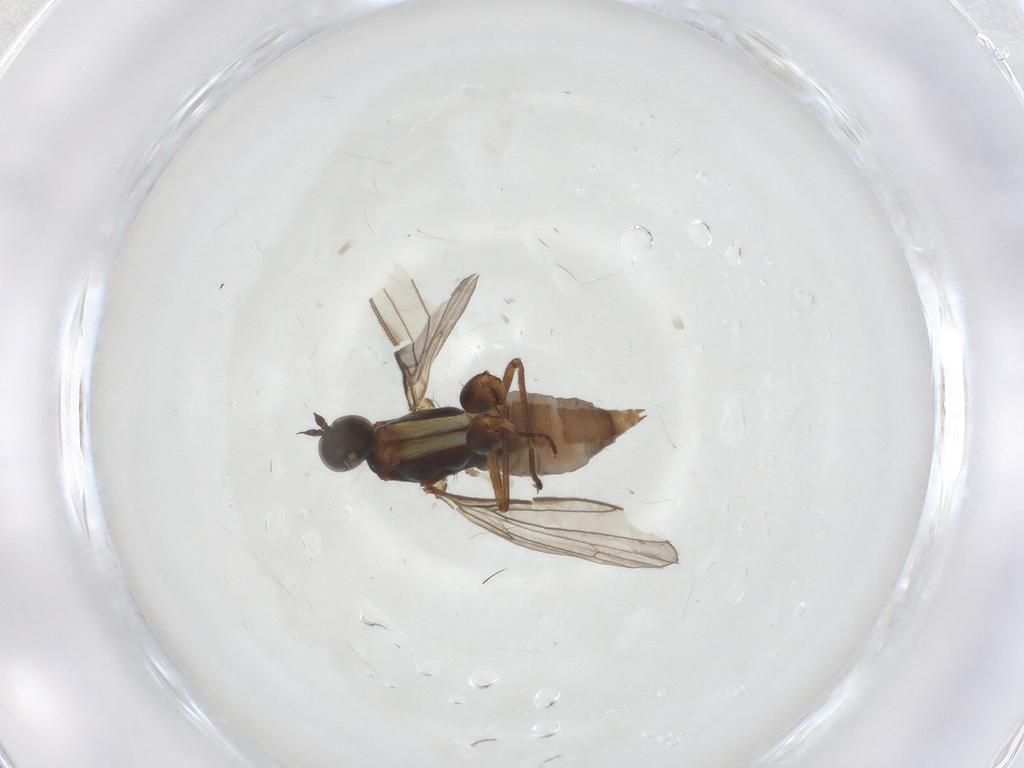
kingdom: Animalia
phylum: Arthropoda
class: Insecta
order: Diptera
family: Empididae
